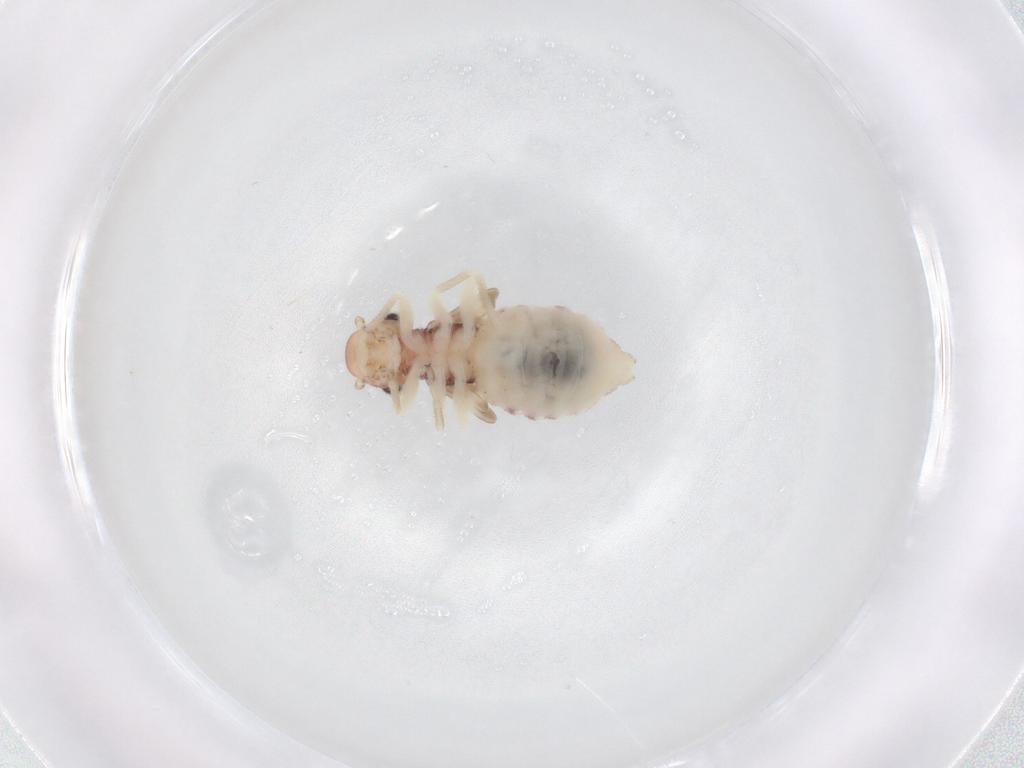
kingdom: Animalia
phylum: Arthropoda
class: Insecta
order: Psocodea
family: Amphipsocidae
